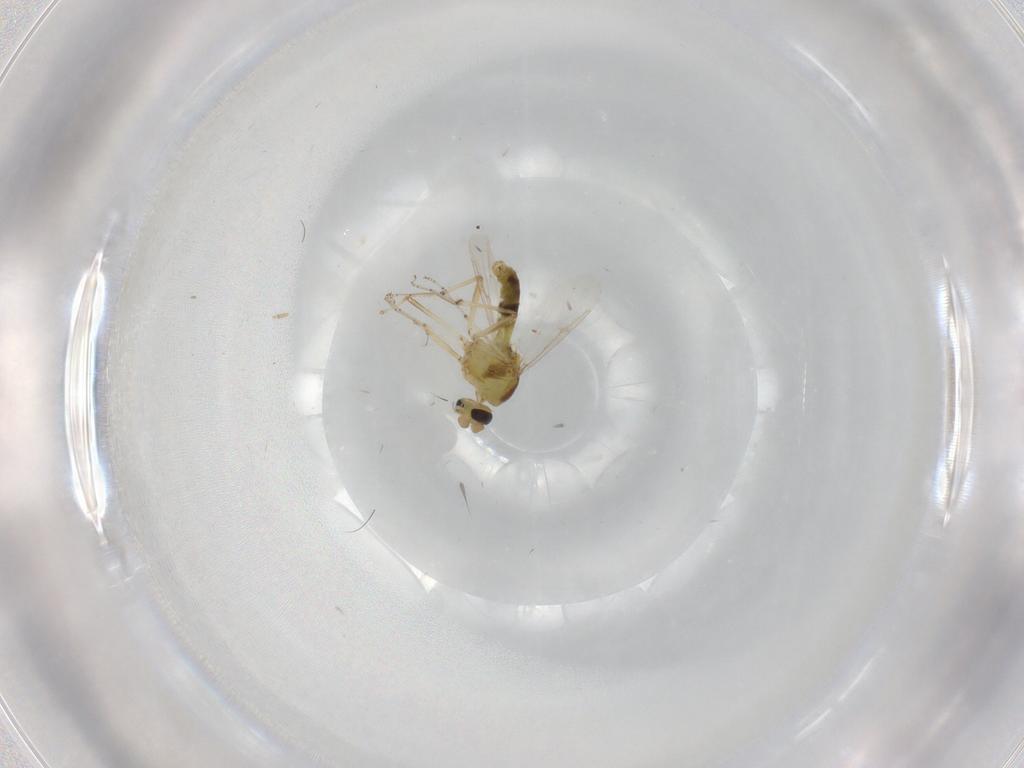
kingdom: Animalia
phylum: Arthropoda
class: Insecta
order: Diptera
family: Ceratopogonidae
